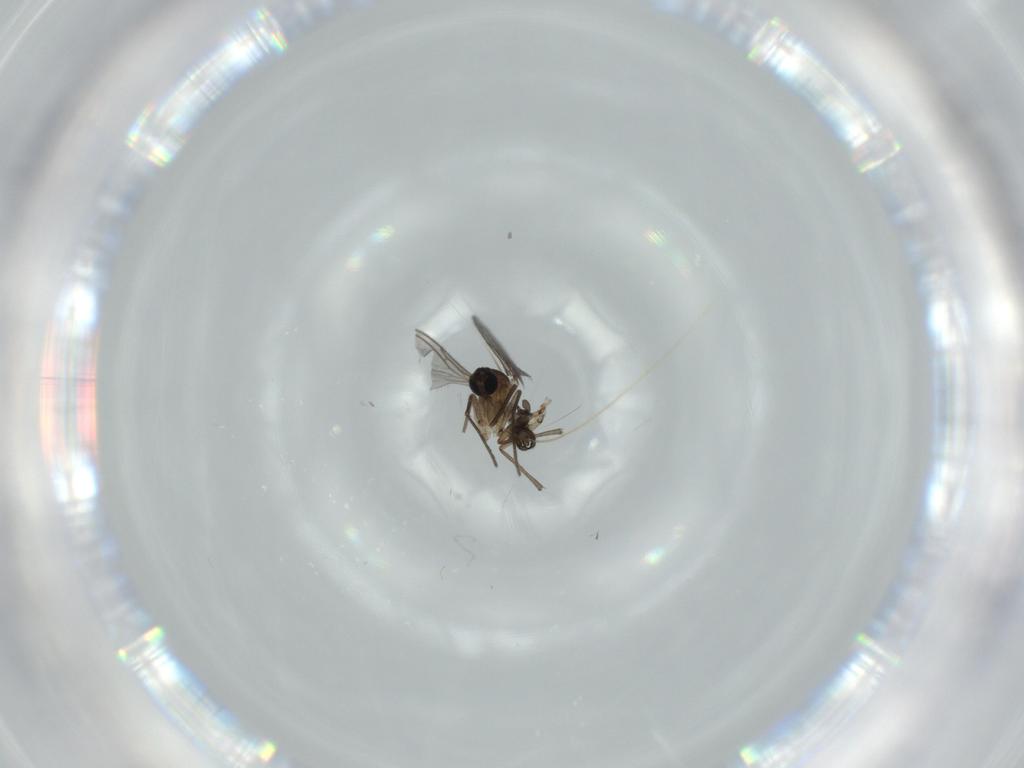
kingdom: Animalia
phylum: Arthropoda
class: Insecta
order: Diptera
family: Sciaridae
